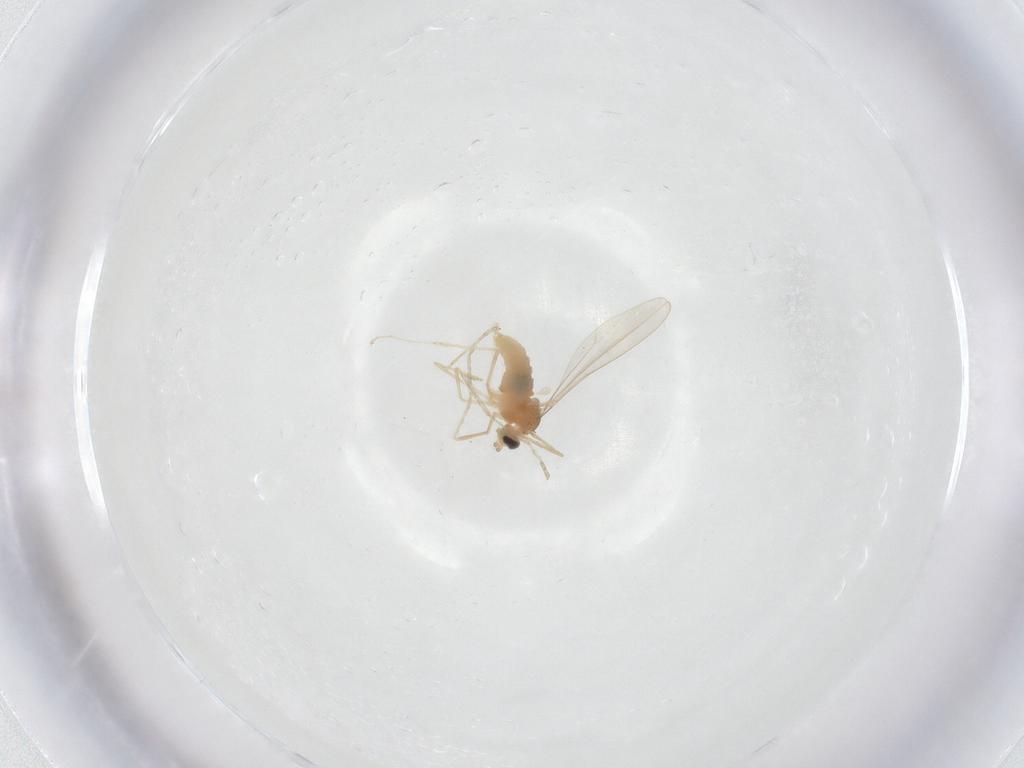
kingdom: Animalia
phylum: Arthropoda
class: Insecta
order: Diptera
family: Cecidomyiidae
